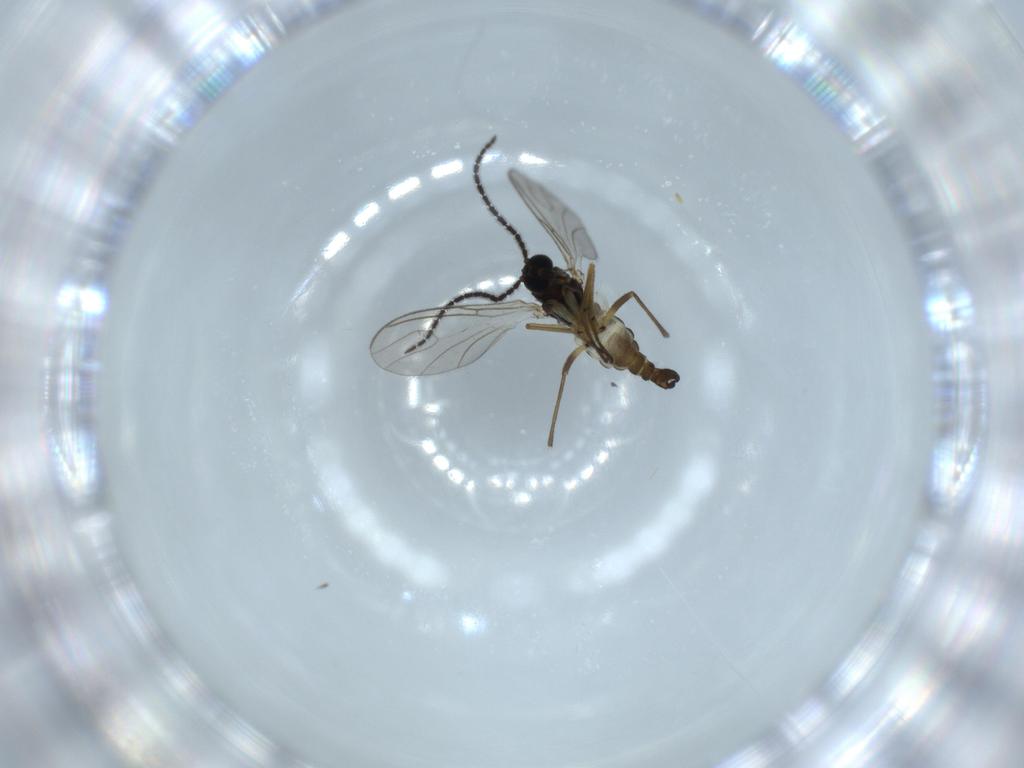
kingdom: Animalia
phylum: Arthropoda
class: Insecta
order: Diptera
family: Sciaridae
